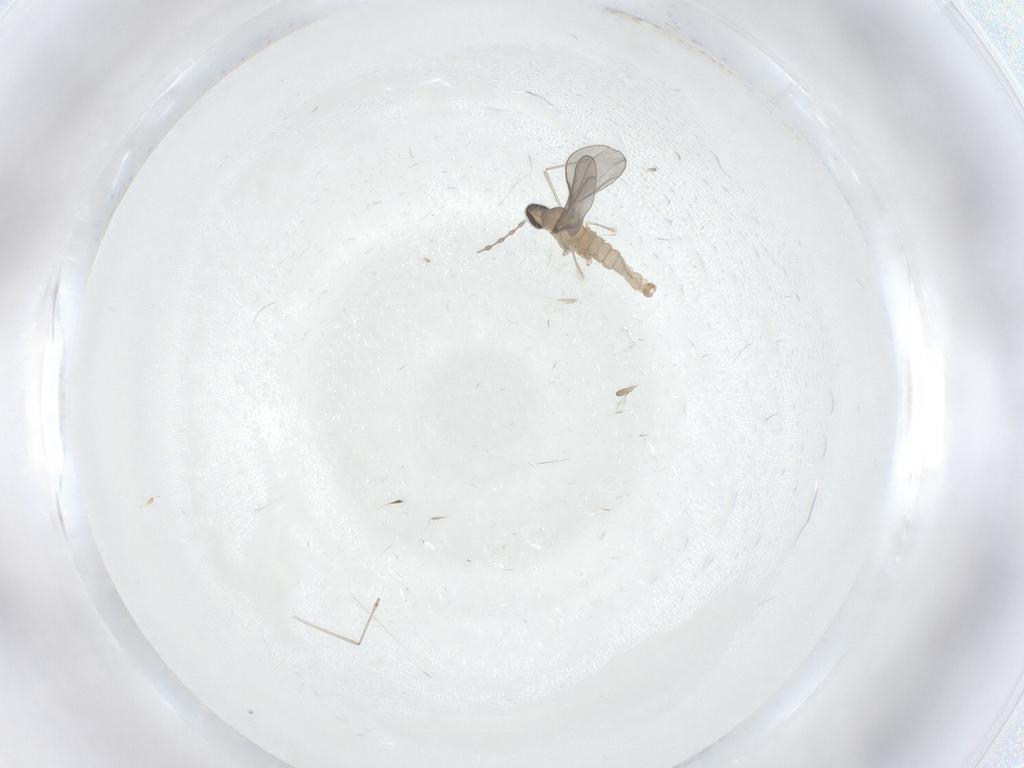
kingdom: Animalia
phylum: Arthropoda
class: Insecta
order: Diptera
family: Cecidomyiidae
